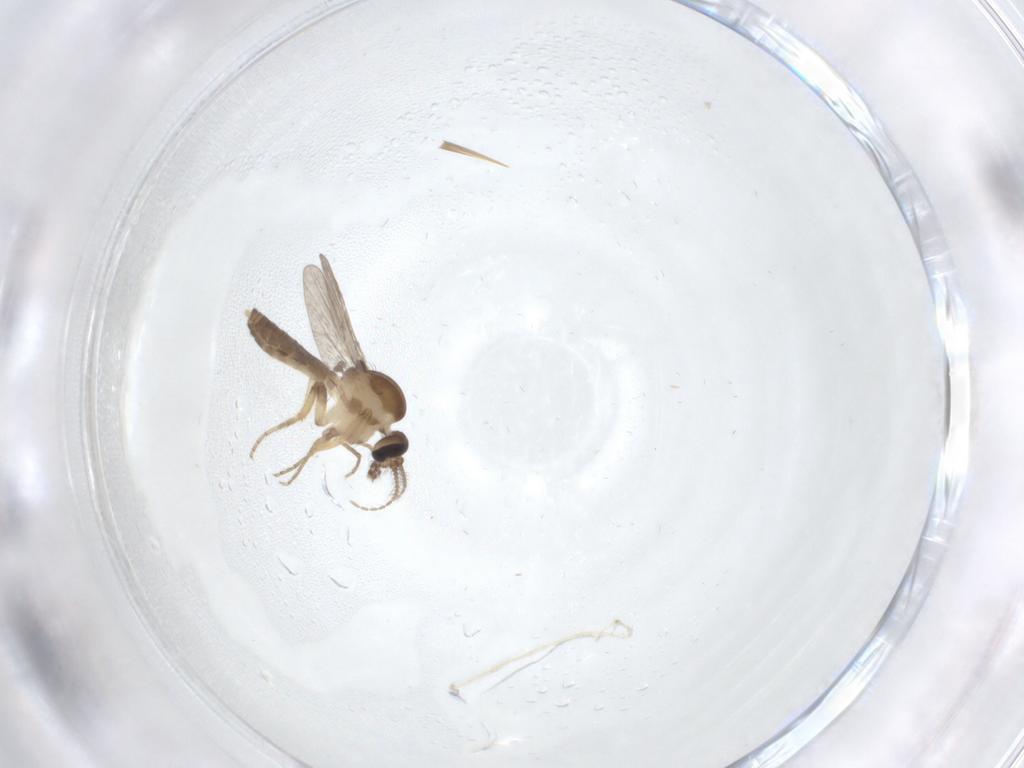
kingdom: Animalia
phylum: Arthropoda
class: Insecta
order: Diptera
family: Ceratopogonidae
